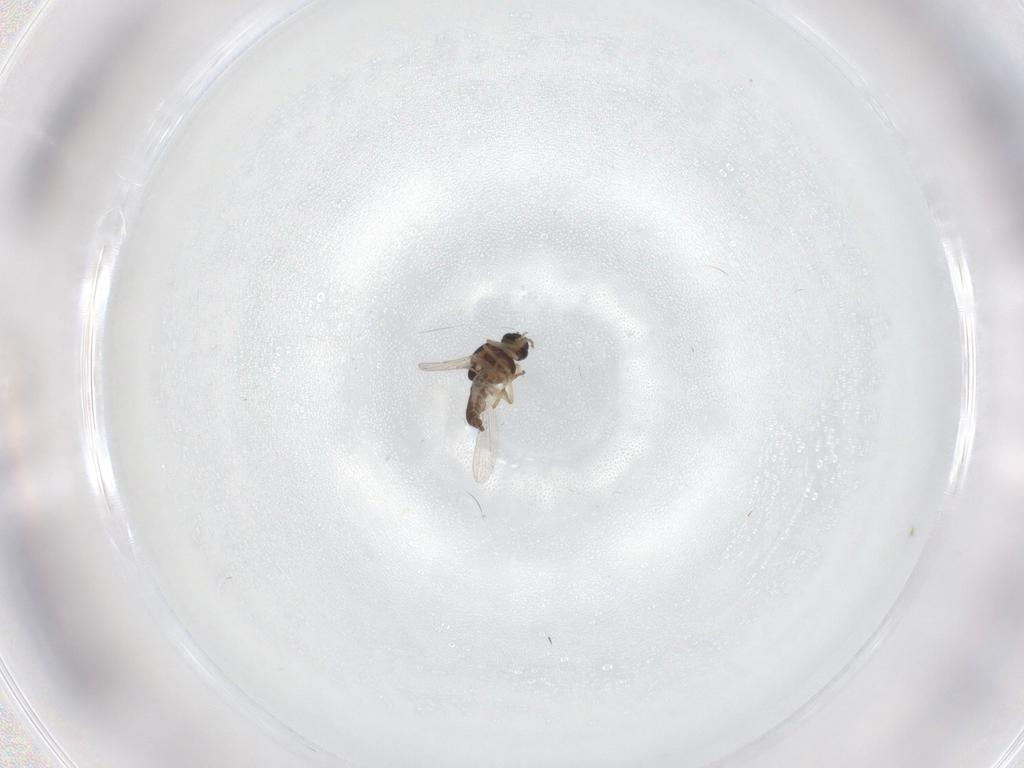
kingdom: Animalia
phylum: Arthropoda
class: Insecta
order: Diptera
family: Ceratopogonidae
